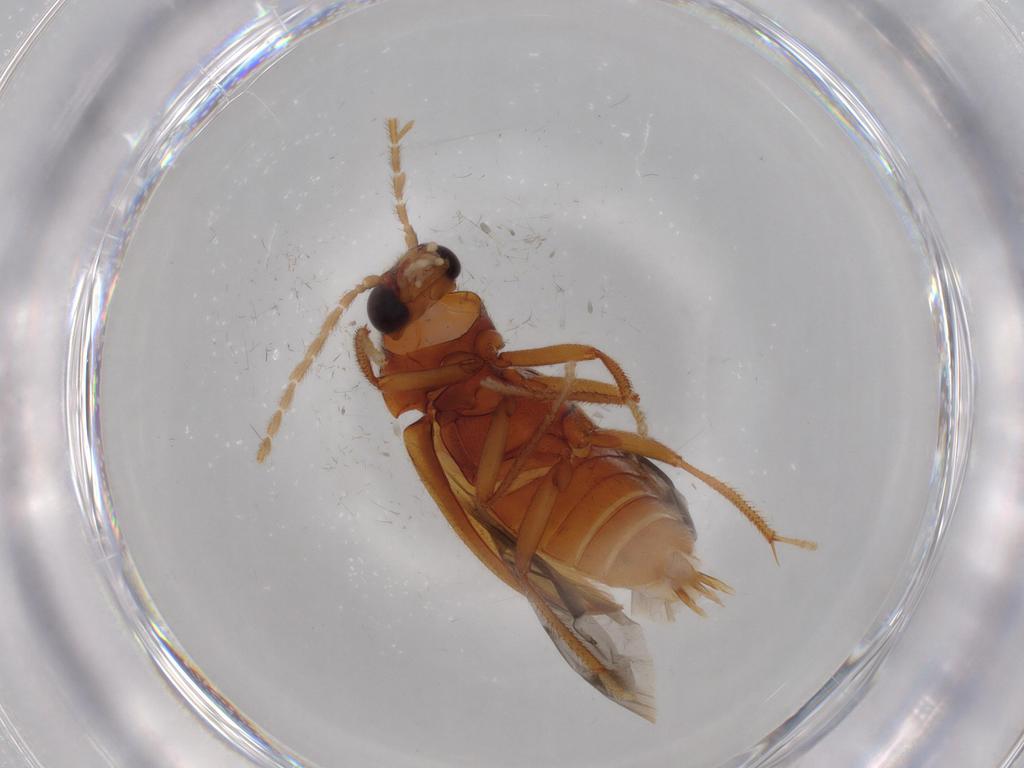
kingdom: Animalia
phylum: Arthropoda
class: Insecta
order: Coleoptera
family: Ptilodactylidae
